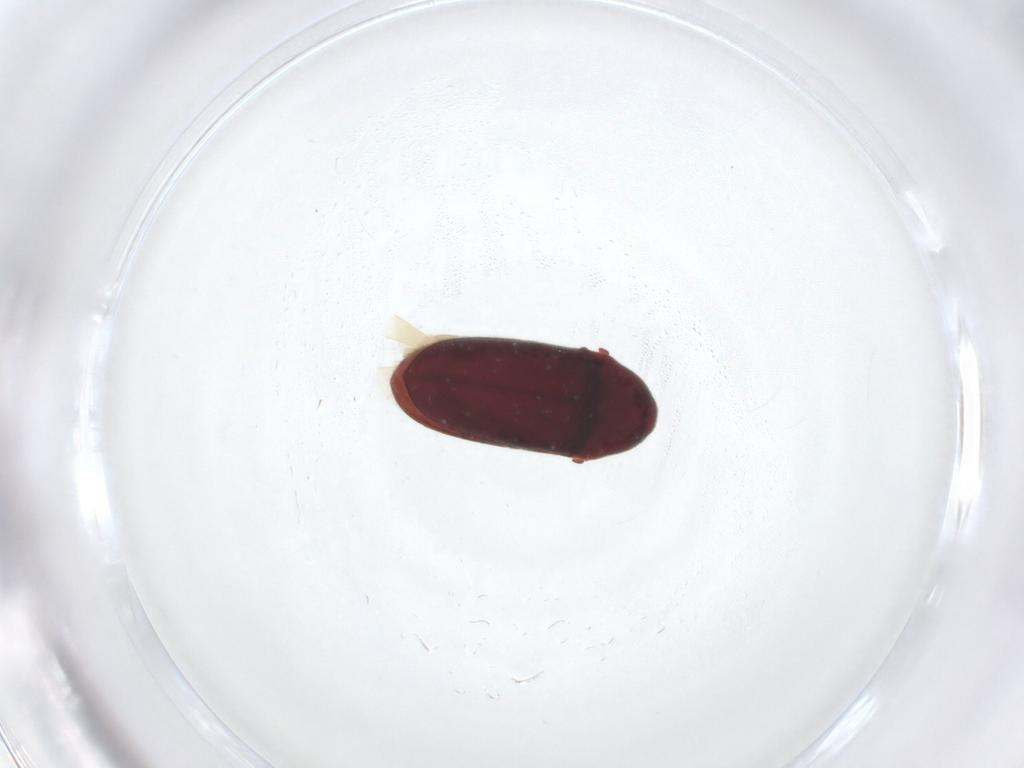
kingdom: Animalia
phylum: Arthropoda
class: Insecta
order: Coleoptera
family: Throscidae
